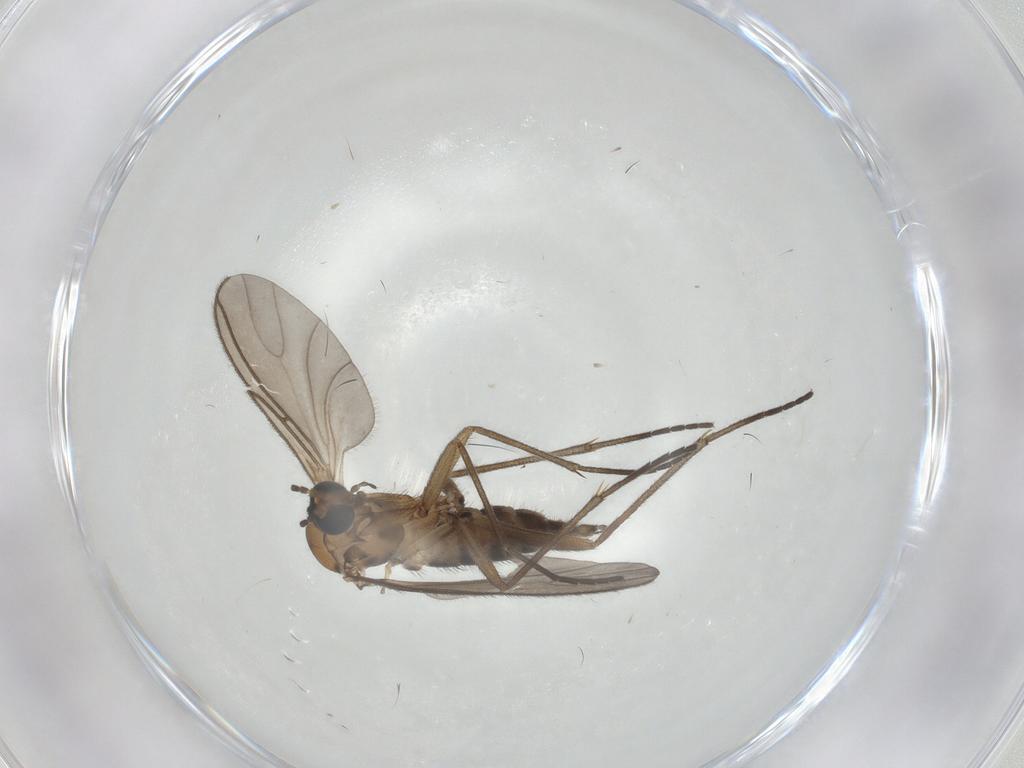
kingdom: Animalia
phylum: Arthropoda
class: Insecta
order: Diptera
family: Sciaridae
